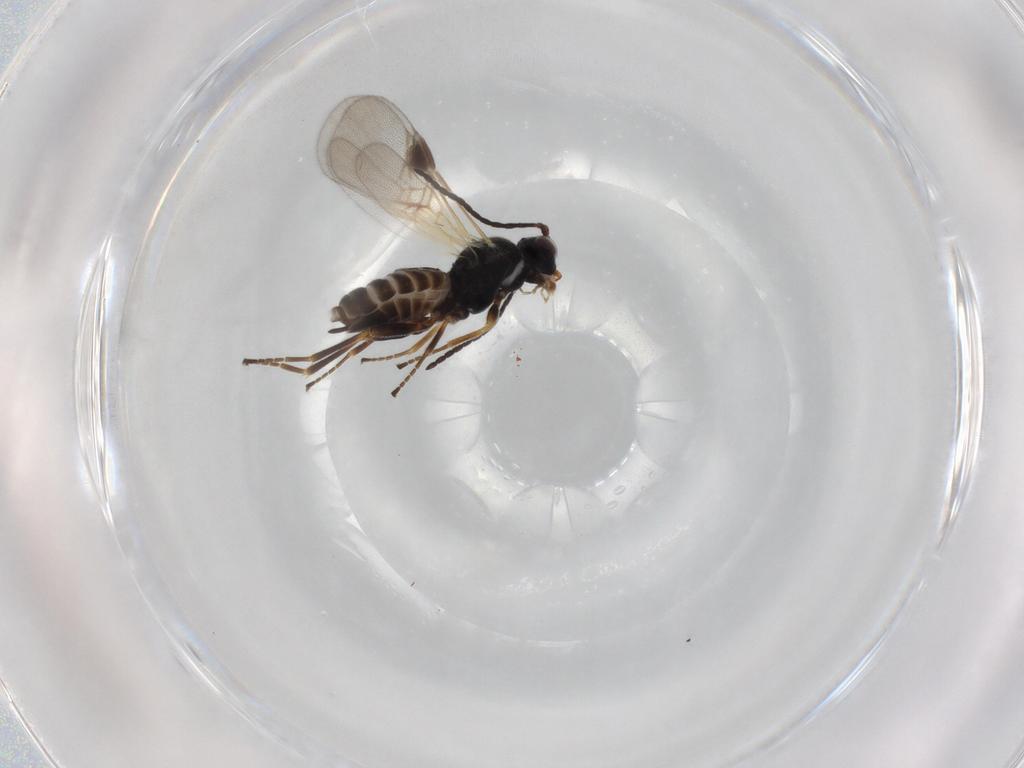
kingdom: Animalia
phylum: Arthropoda
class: Insecta
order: Hymenoptera
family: Braconidae
